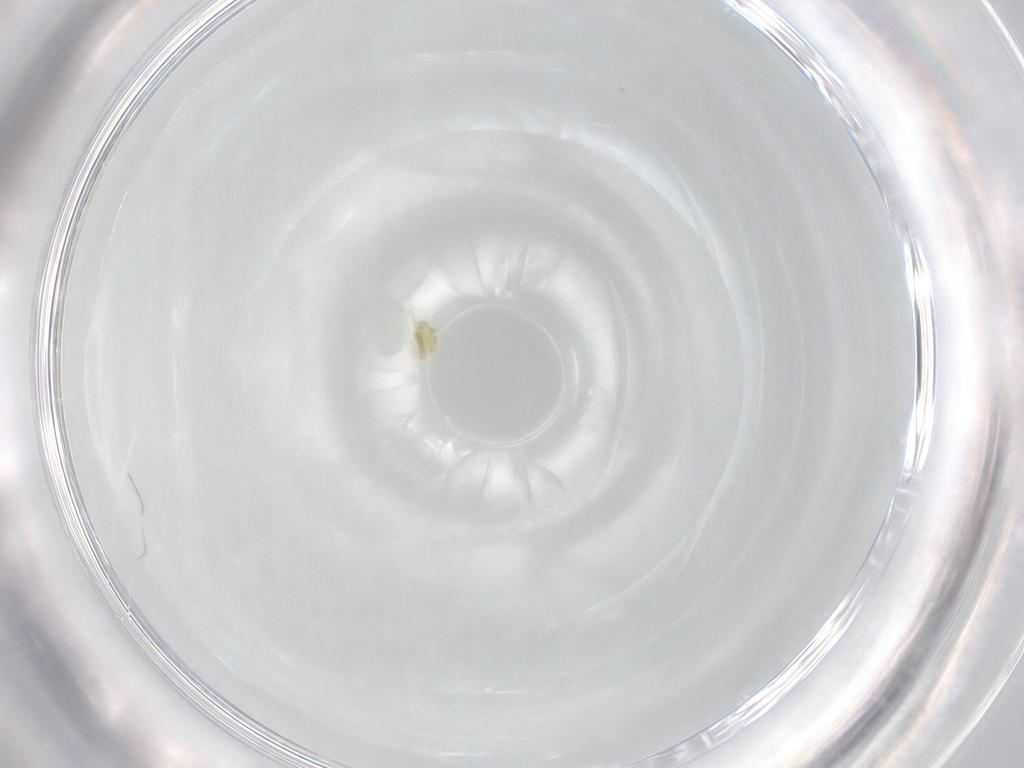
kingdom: Animalia
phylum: Arthropoda
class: Arachnida
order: Trombidiformes
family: Eupodidae
